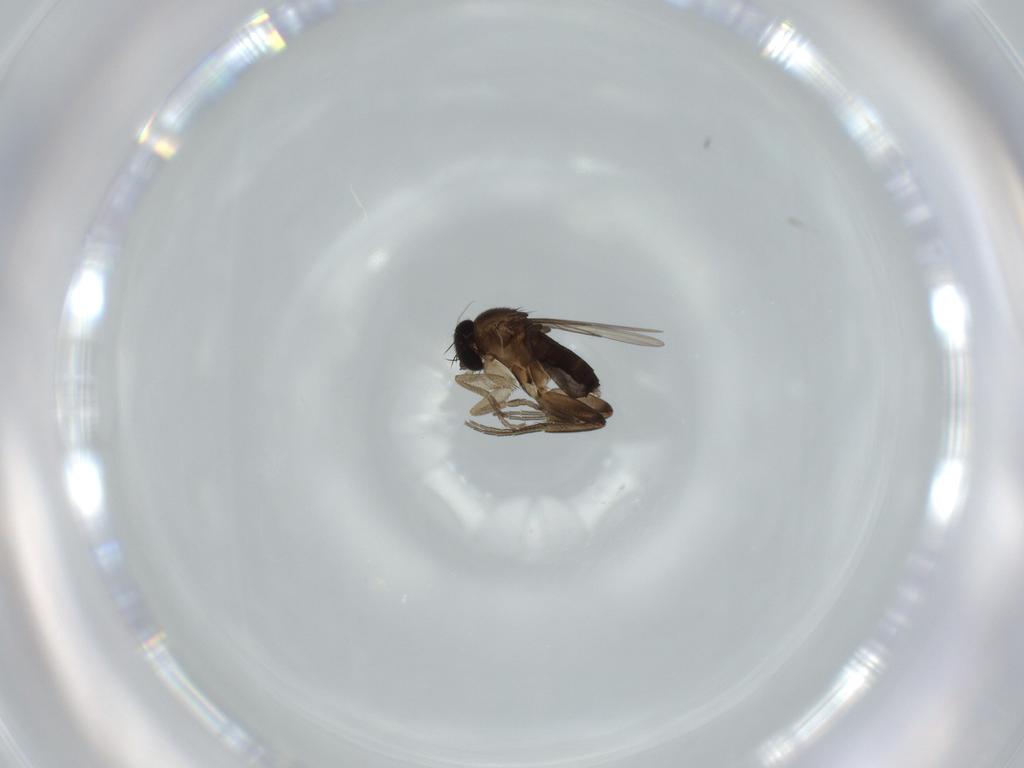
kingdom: Animalia
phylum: Arthropoda
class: Insecta
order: Diptera
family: Phoridae
